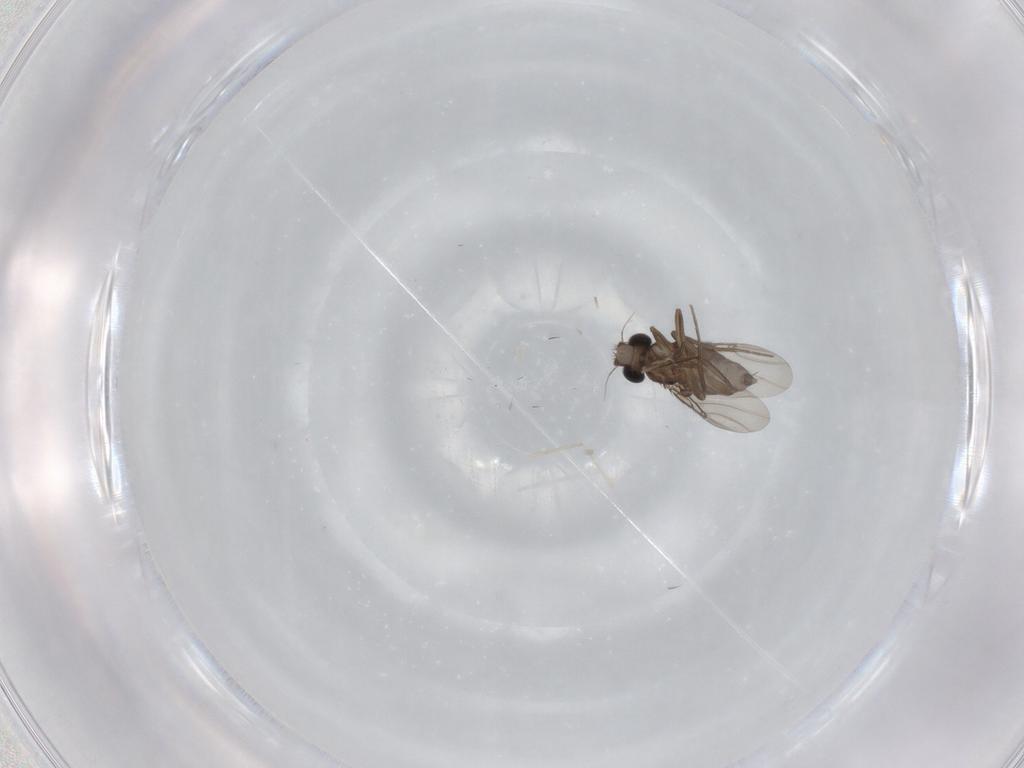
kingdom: Animalia
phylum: Arthropoda
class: Insecta
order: Diptera
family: Phoridae
